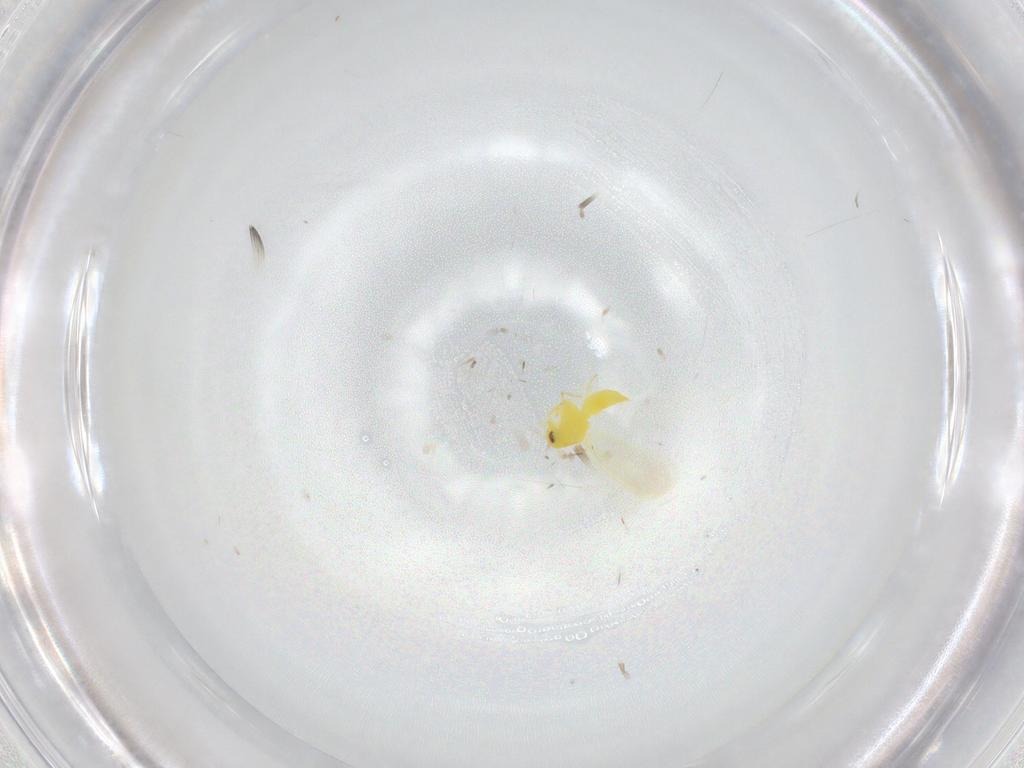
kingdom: Animalia
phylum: Arthropoda
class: Insecta
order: Hemiptera
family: Aleyrodidae
